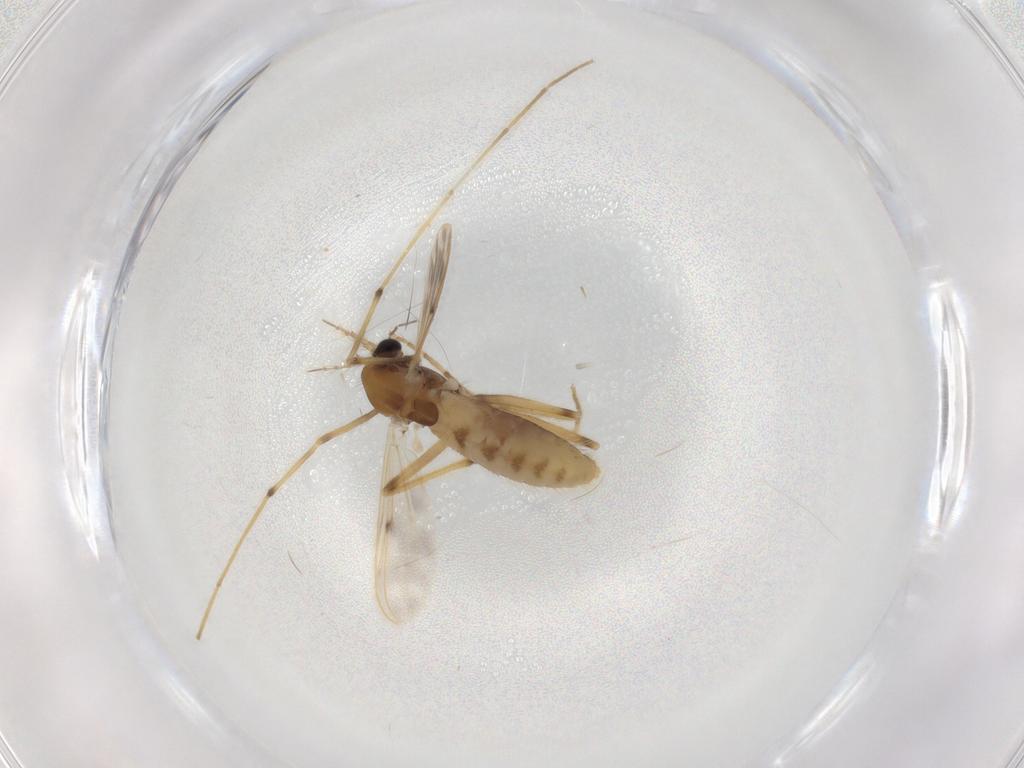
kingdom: Animalia
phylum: Arthropoda
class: Insecta
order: Diptera
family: Chironomidae
